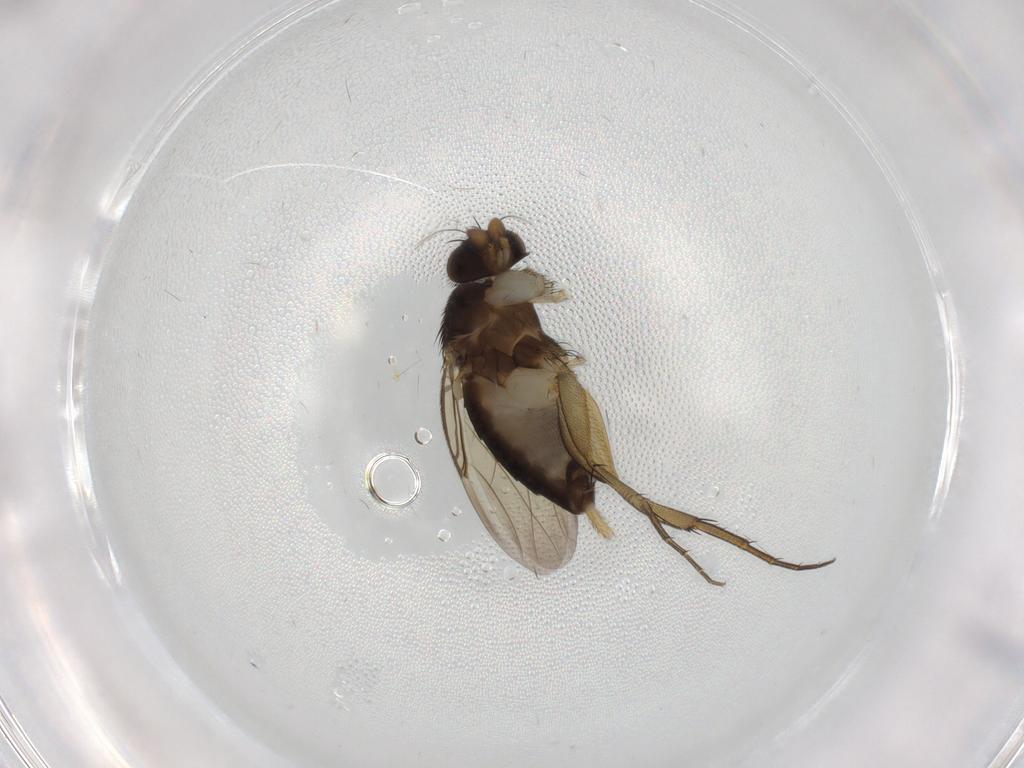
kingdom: Animalia
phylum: Arthropoda
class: Insecta
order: Diptera
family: Phoridae
